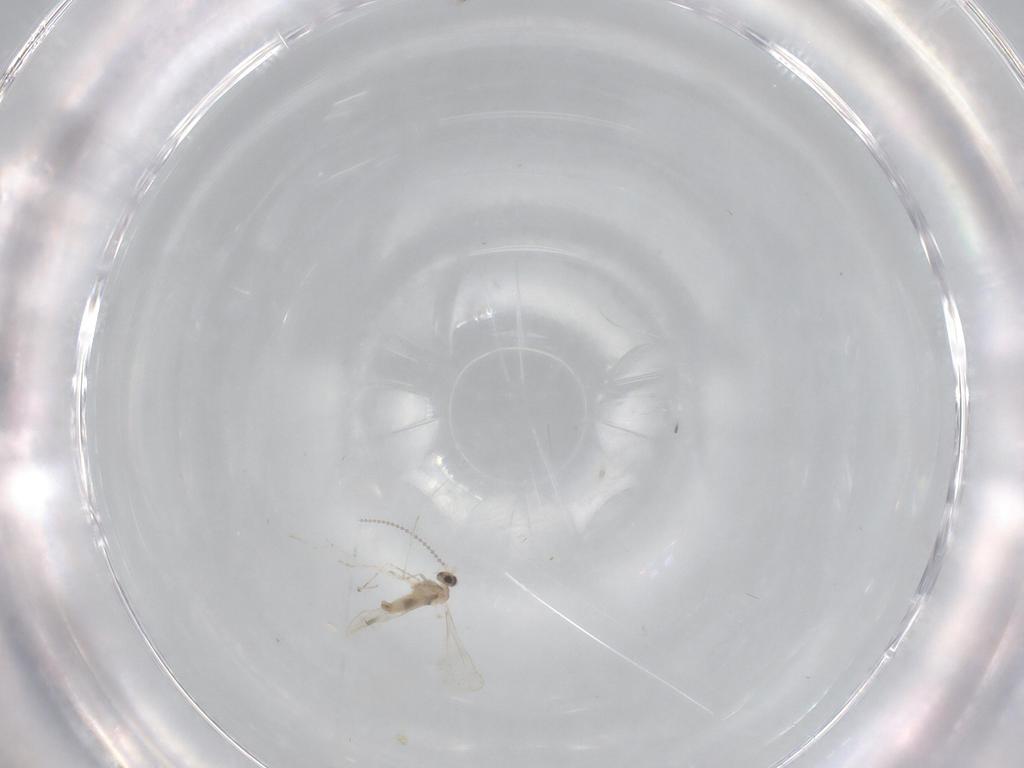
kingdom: Animalia
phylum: Arthropoda
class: Insecta
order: Diptera
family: Cecidomyiidae
